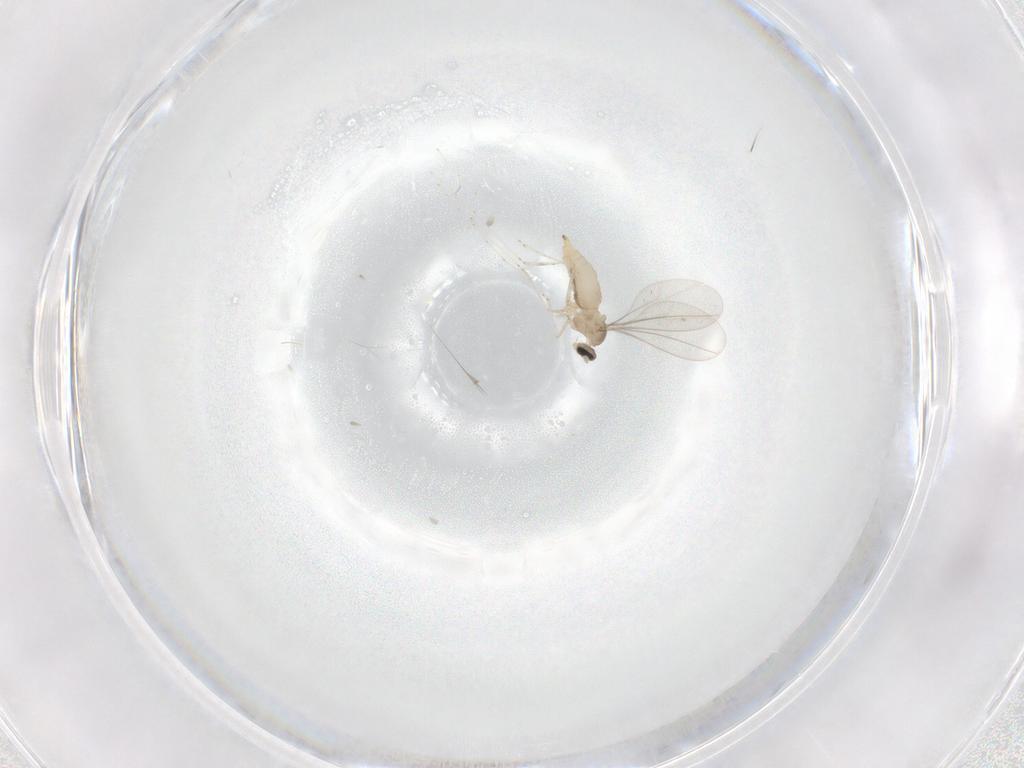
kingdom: Animalia
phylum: Arthropoda
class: Insecta
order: Diptera
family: Cecidomyiidae
